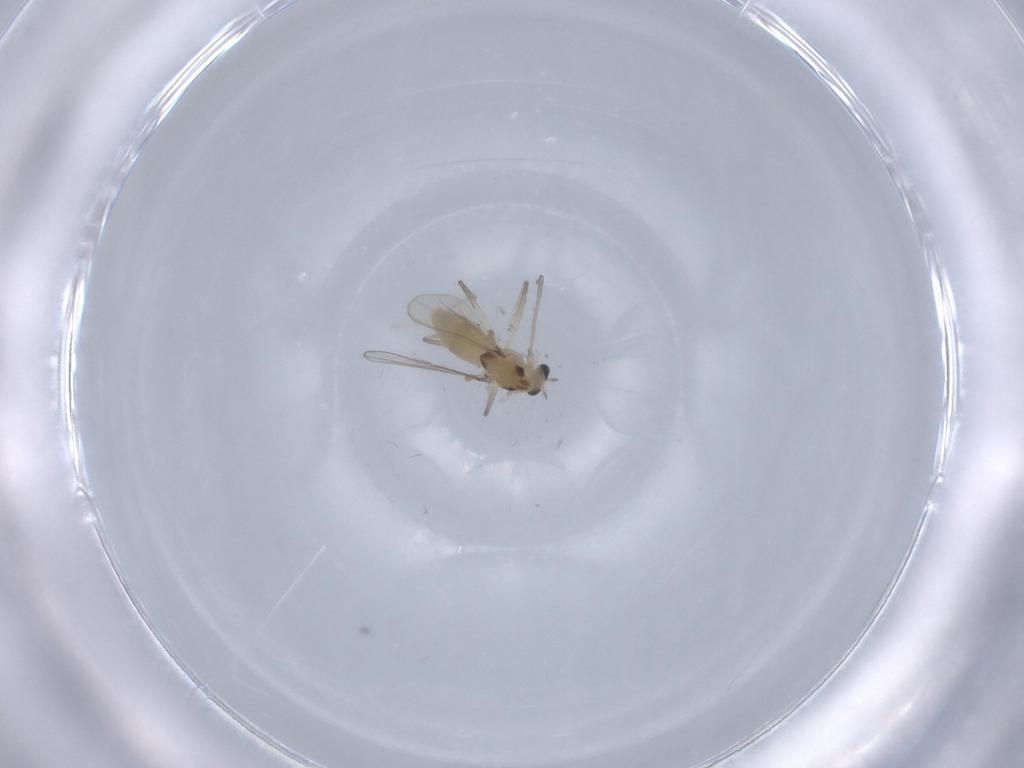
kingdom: Animalia
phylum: Arthropoda
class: Insecta
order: Diptera
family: Chironomidae
